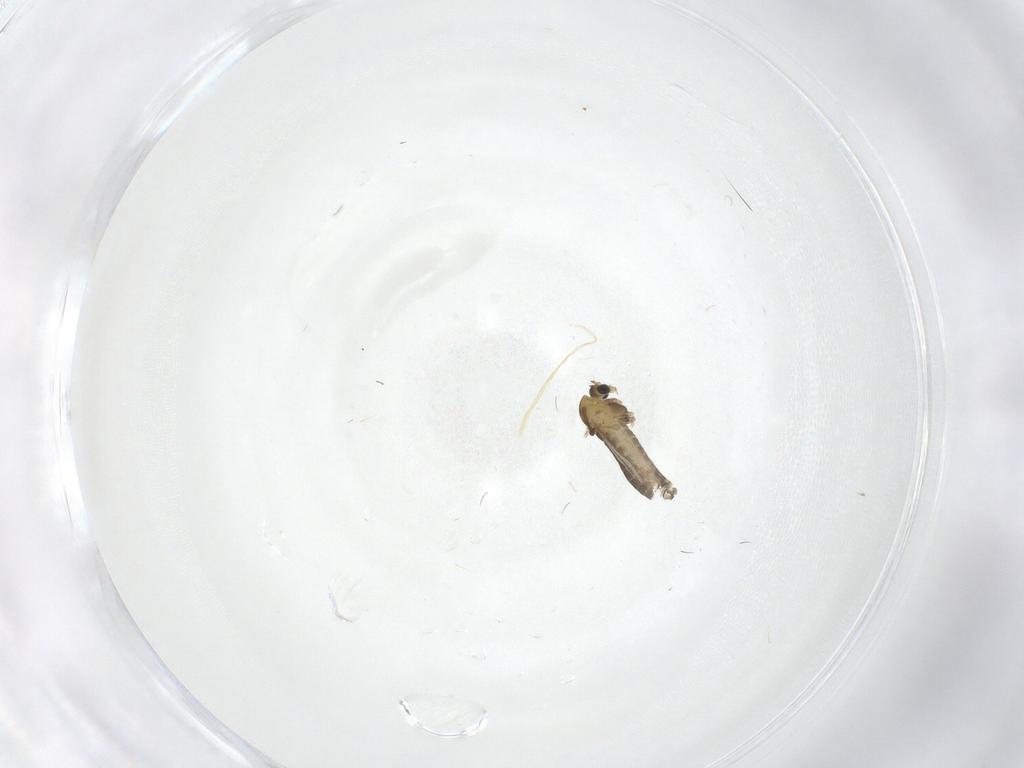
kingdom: Animalia
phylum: Arthropoda
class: Insecta
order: Diptera
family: Chironomidae
